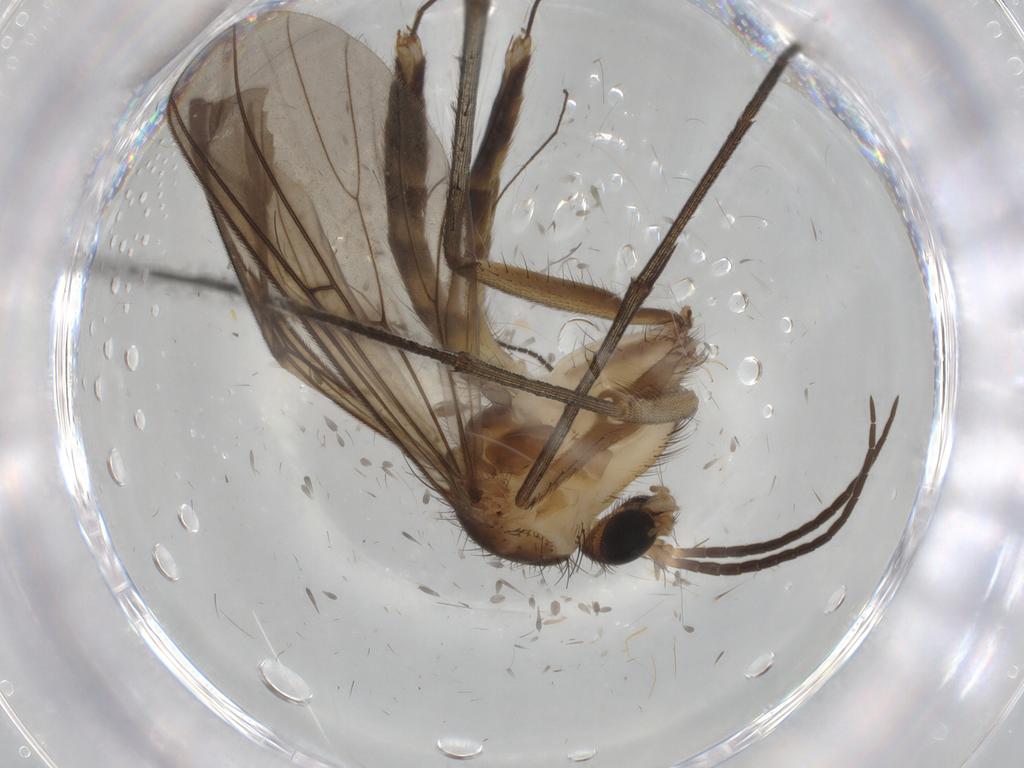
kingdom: Animalia
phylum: Arthropoda
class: Insecta
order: Diptera
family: Mycetophilidae
